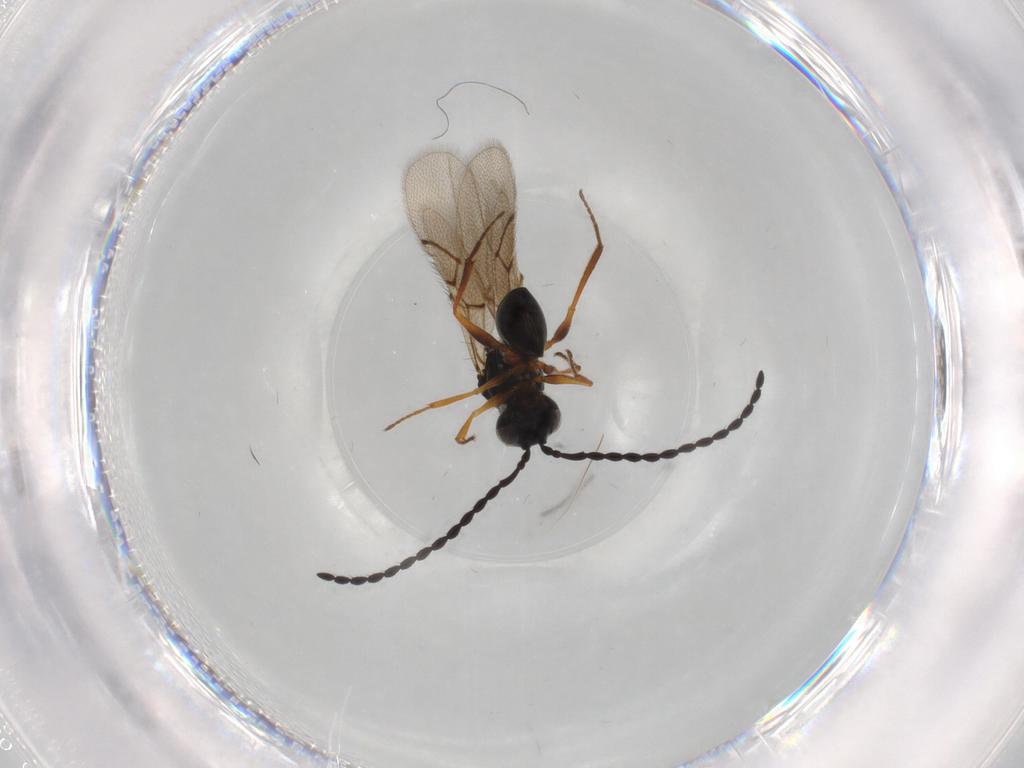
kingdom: Animalia
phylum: Arthropoda
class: Insecta
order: Hymenoptera
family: Figitidae
